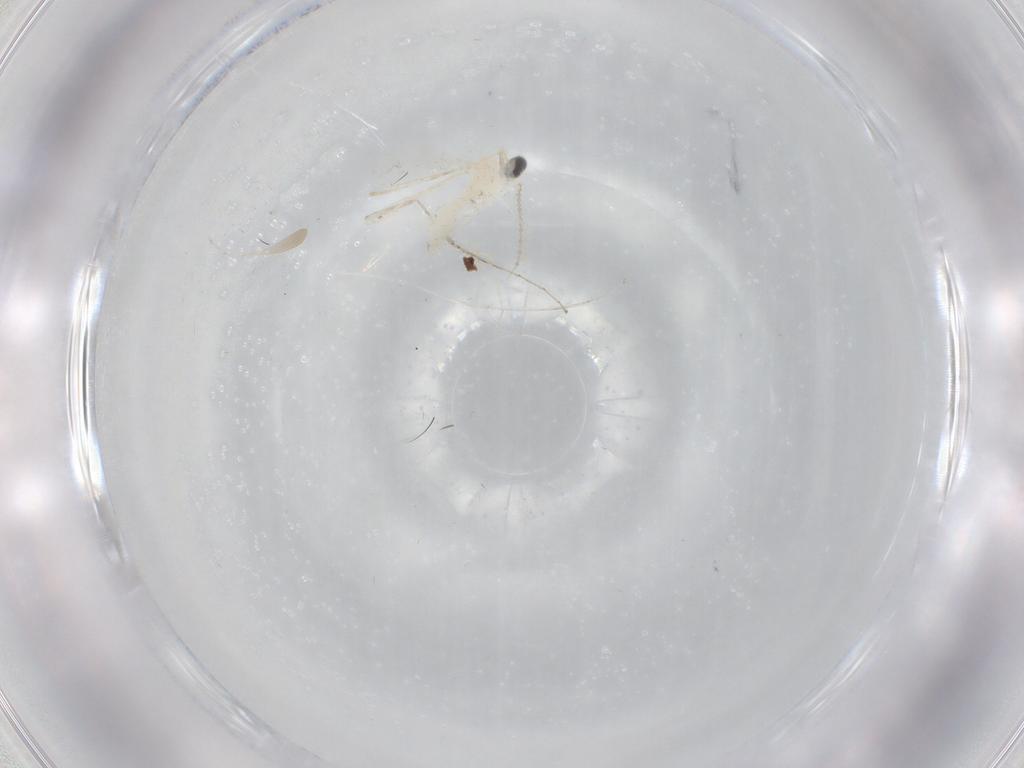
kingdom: Animalia
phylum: Arthropoda
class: Insecta
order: Diptera
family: Cecidomyiidae
